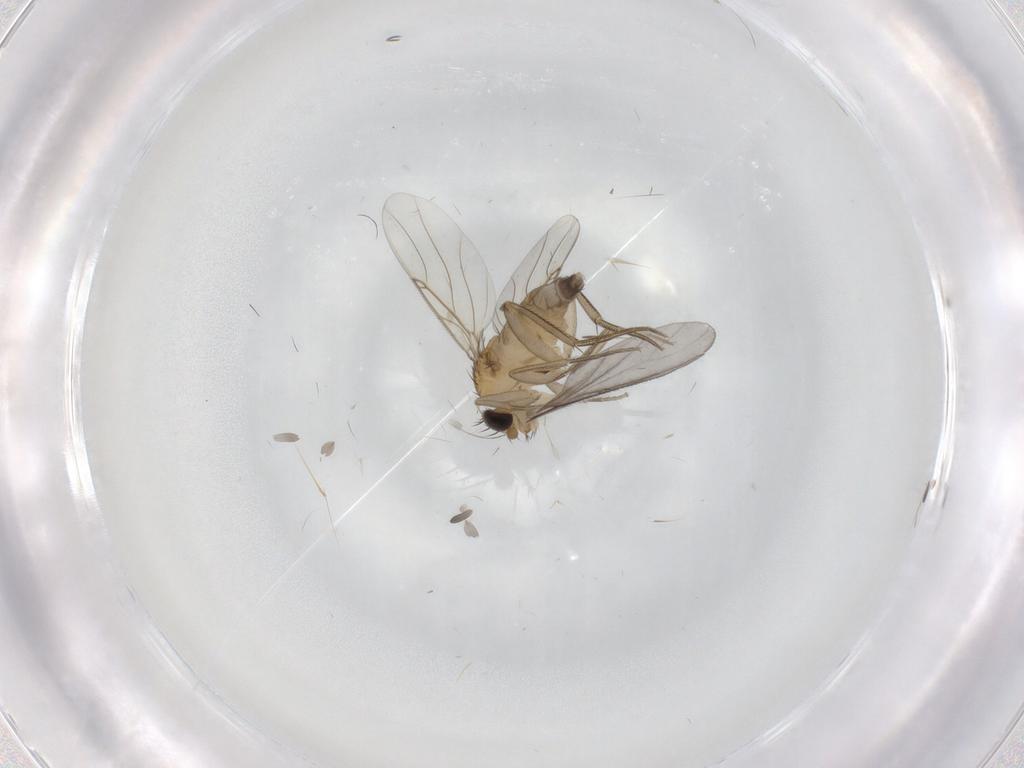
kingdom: Animalia
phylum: Arthropoda
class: Insecta
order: Diptera
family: Phoridae
